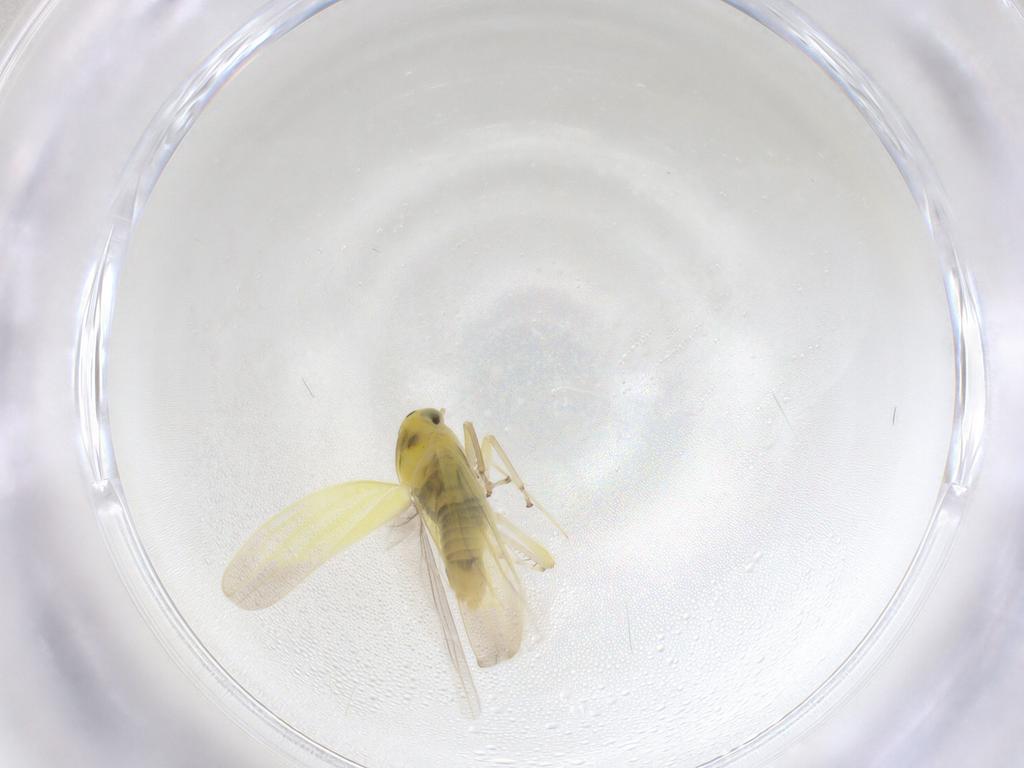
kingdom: Animalia
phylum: Arthropoda
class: Insecta
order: Hemiptera
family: Cicadellidae
